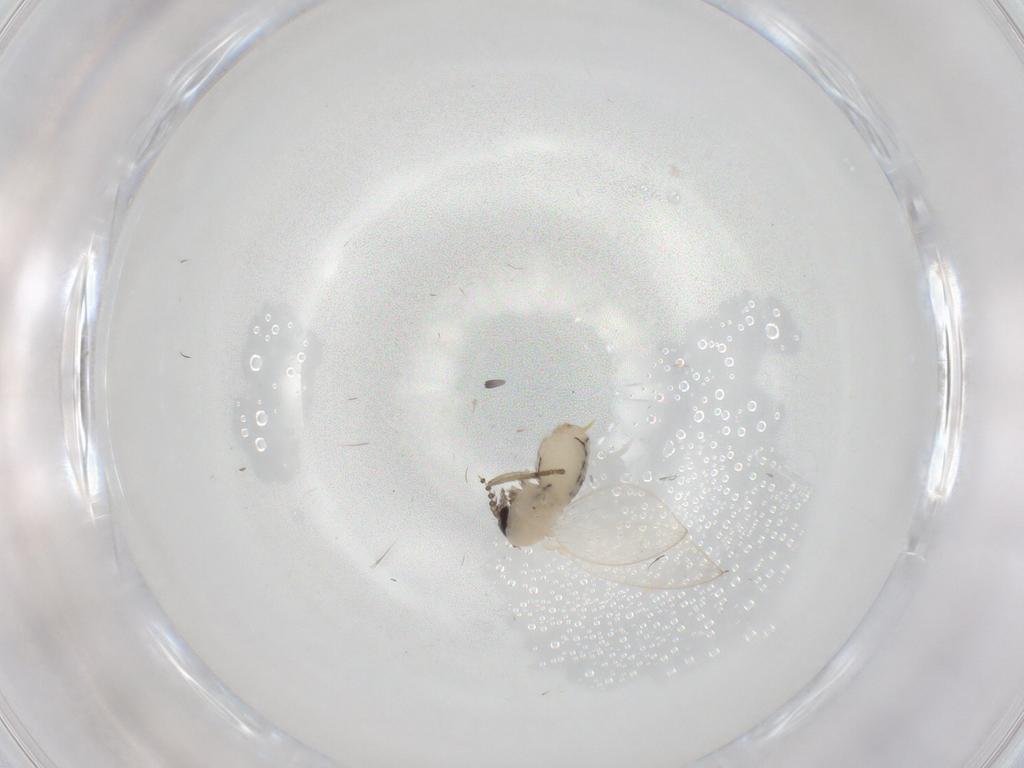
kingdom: Animalia
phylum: Arthropoda
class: Insecta
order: Diptera
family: Psychodidae
